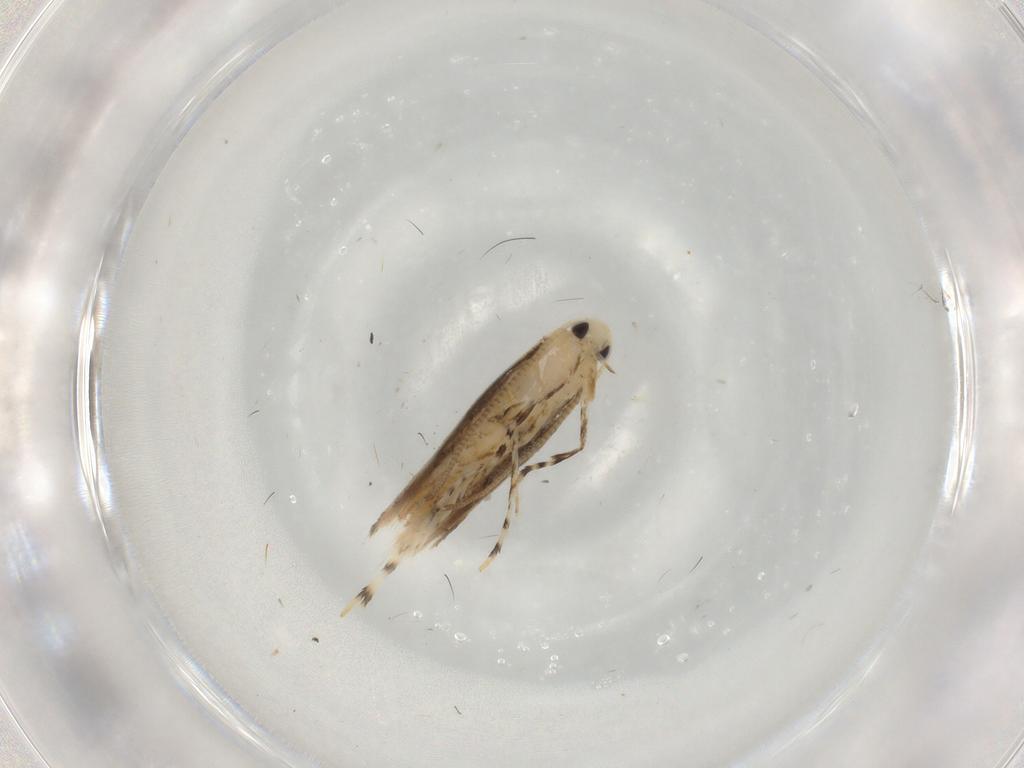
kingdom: Animalia
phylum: Arthropoda
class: Insecta
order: Lepidoptera
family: Gracillariidae
